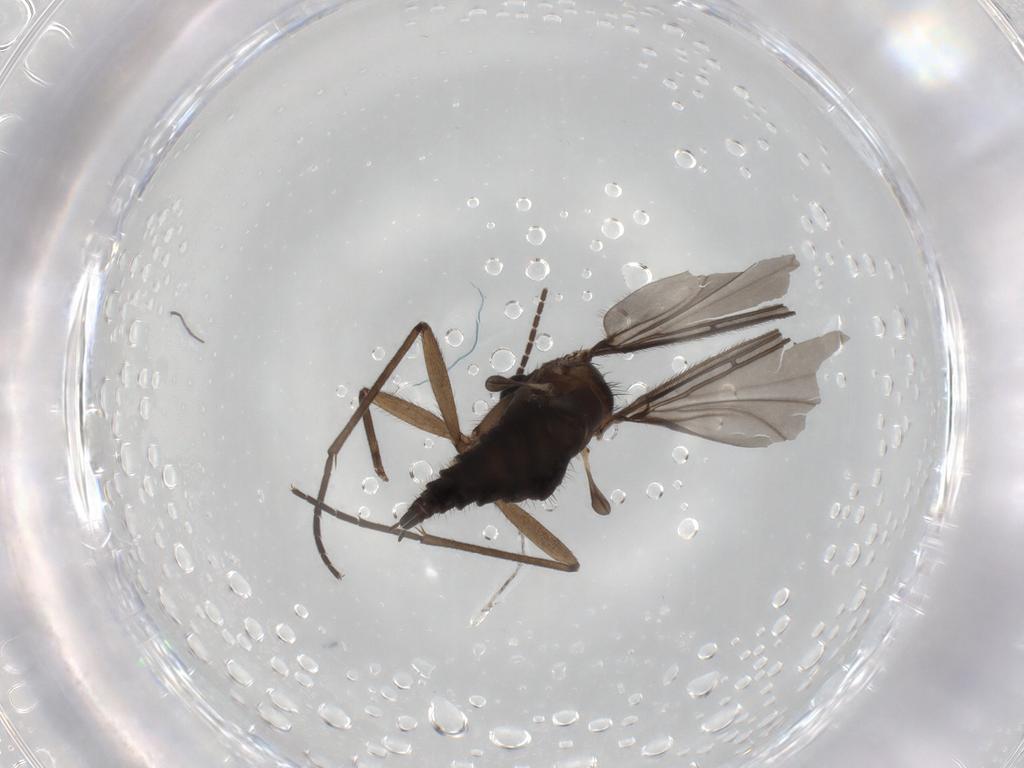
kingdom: Animalia
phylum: Arthropoda
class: Insecta
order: Diptera
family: Sciaridae
